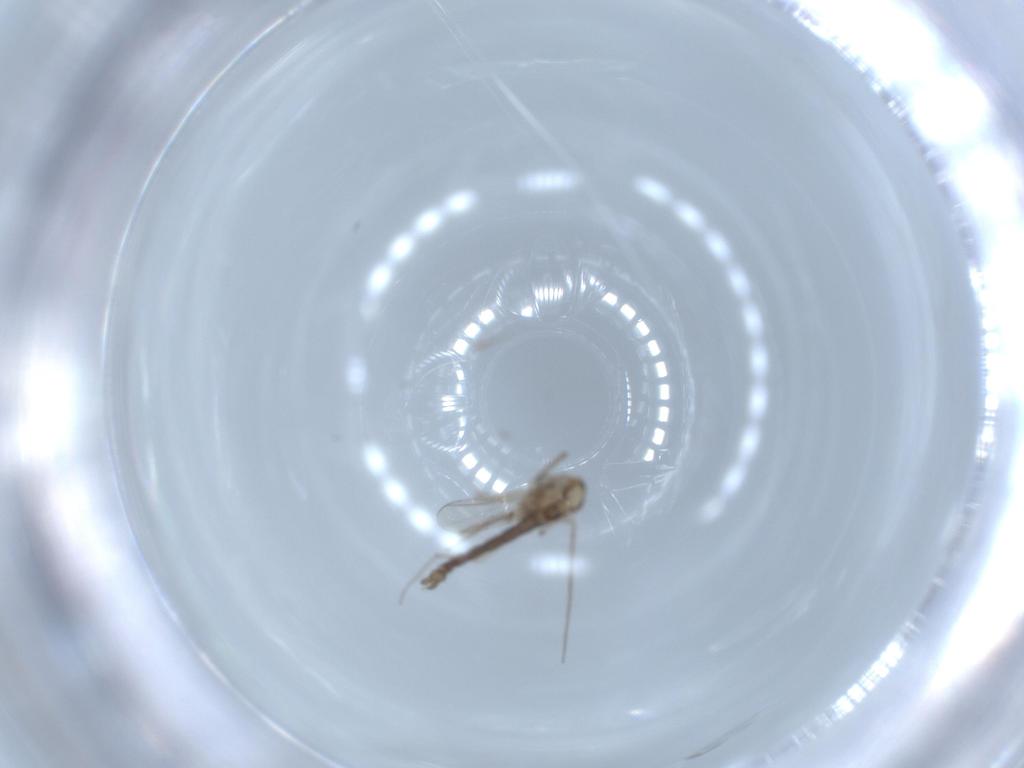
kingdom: Animalia
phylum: Arthropoda
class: Insecta
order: Diptera
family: Chironomidae
